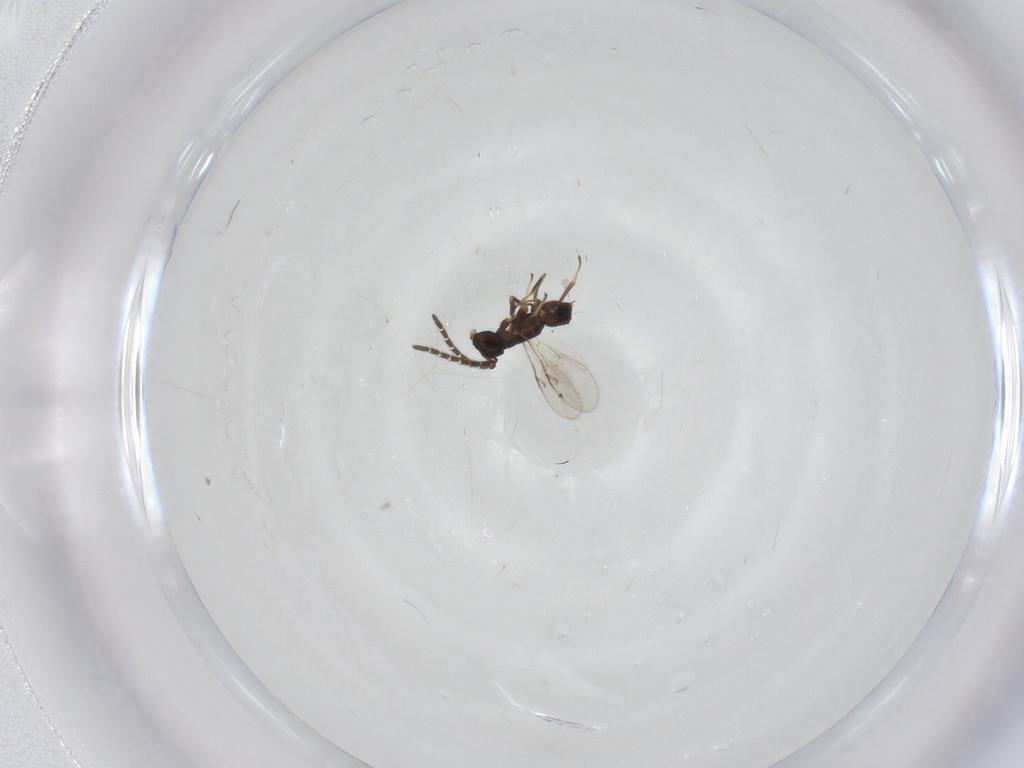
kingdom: Animalia
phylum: Arthropoda
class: Insecta
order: Hymenoptera
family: Encyrtidae
